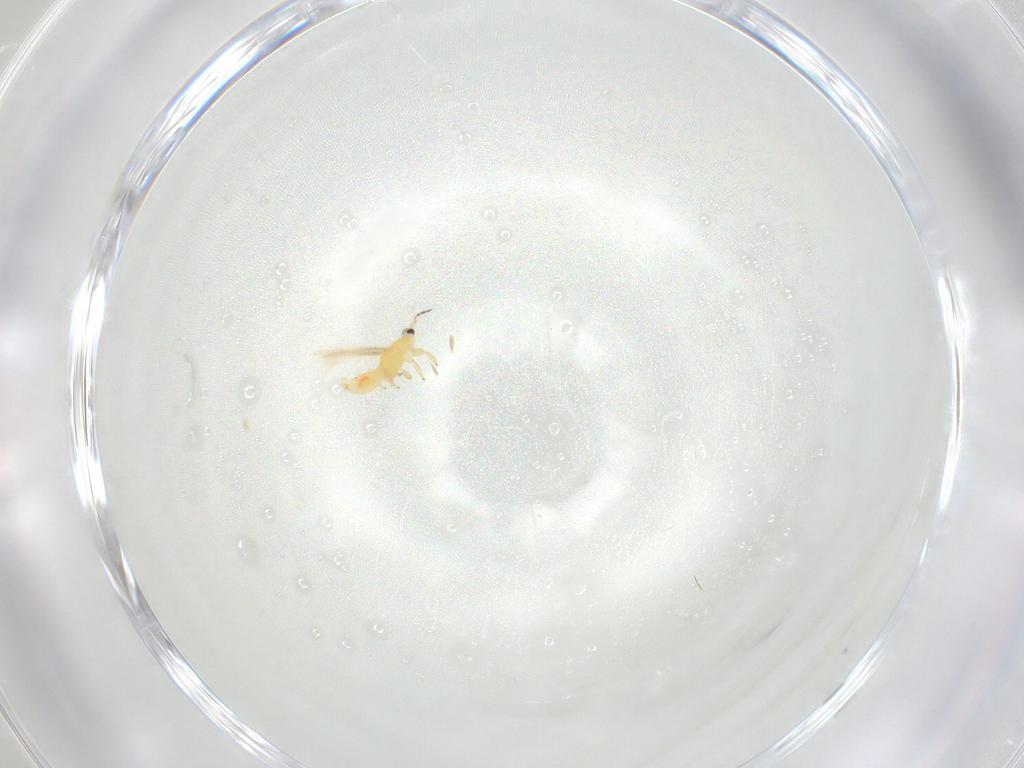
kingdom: Animalia
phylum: Arthropoda
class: Insecta
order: Thysanoptera
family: Melanthripidae
